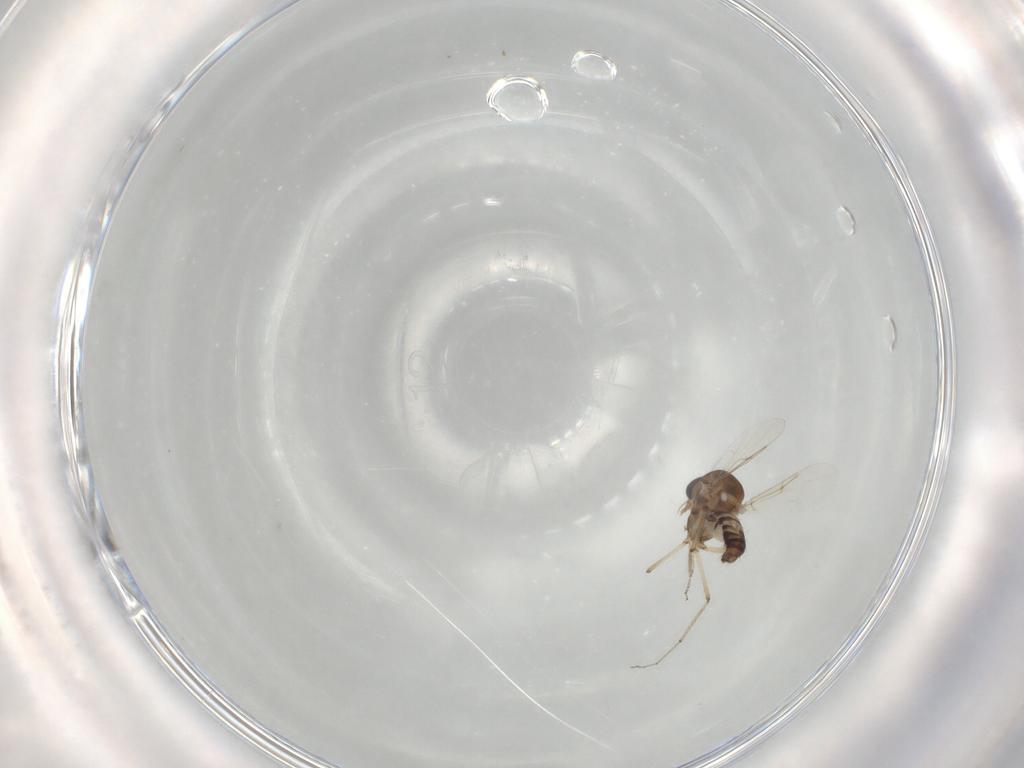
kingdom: Animalia
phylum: Arthropoda
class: Insecta
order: Diptera
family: Ceratopogonidae
